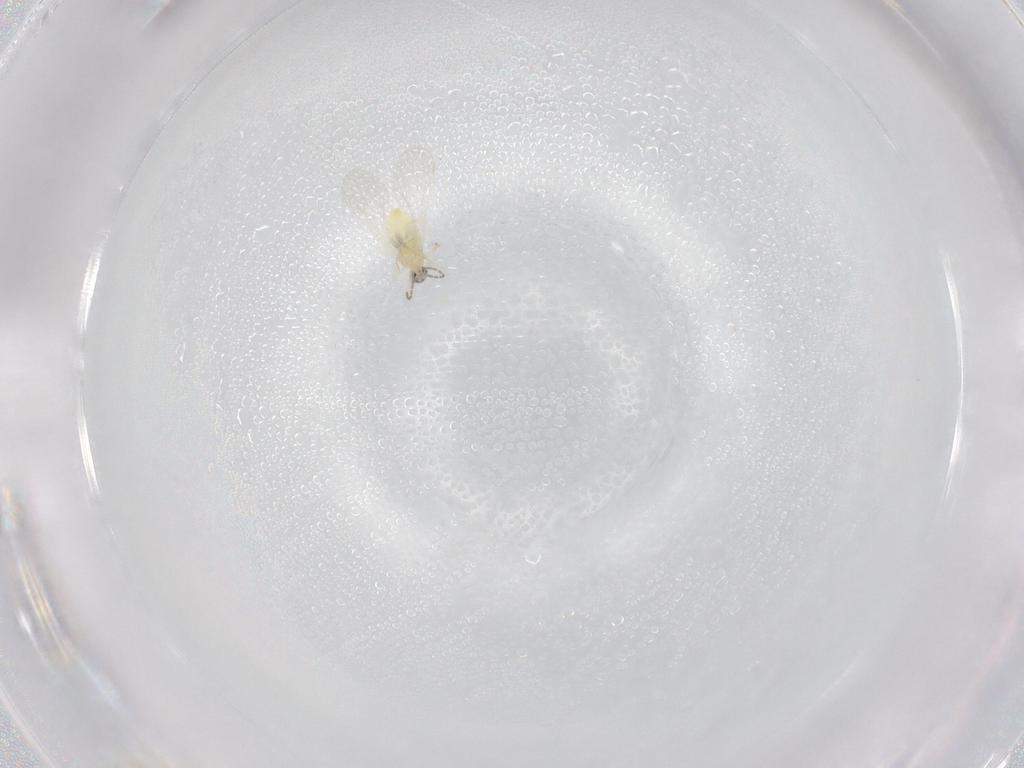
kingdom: Animalia
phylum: Arthropoda
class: Insecta
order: Diptera
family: Cecidomyiidae
